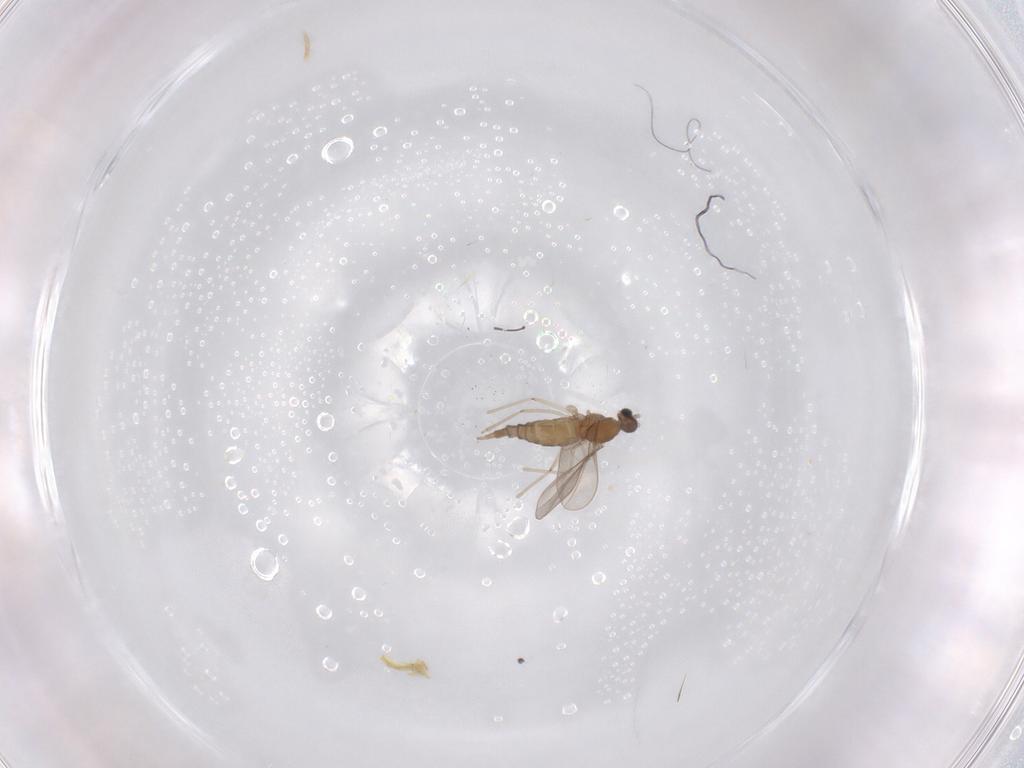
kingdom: Animalia
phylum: Arthropoda
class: Insecta
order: Diptera
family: Cecidomyiidae
